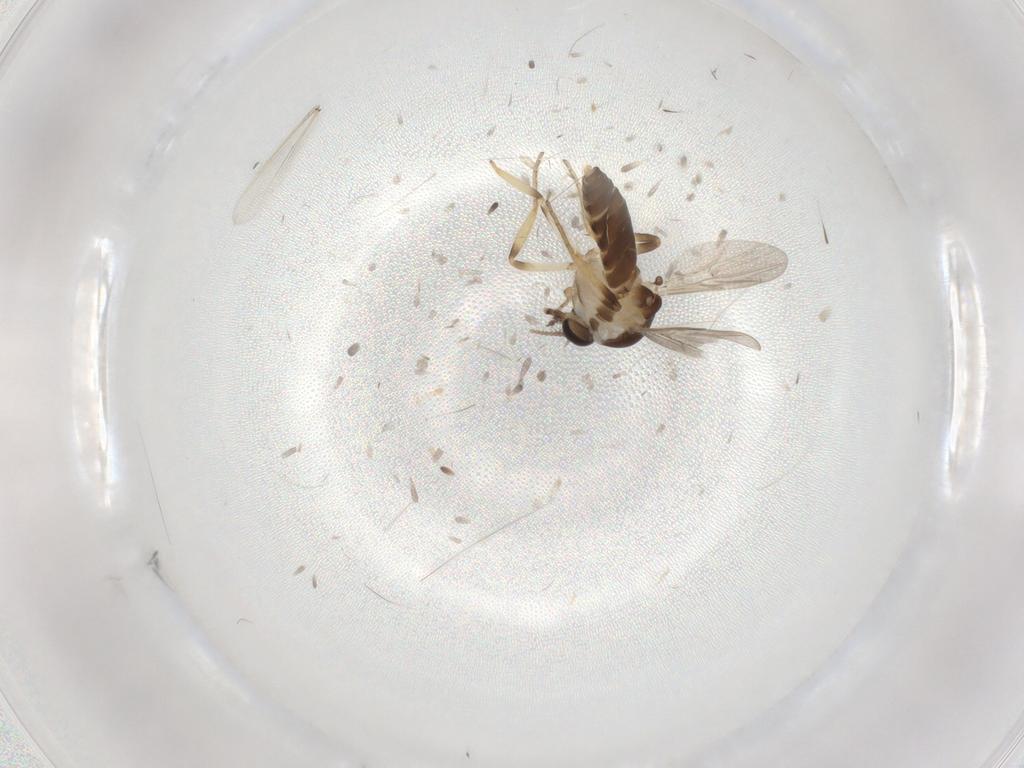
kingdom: Animalia
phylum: Arthropoda
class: Insecta
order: Diptera
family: Ceratopogonidae
